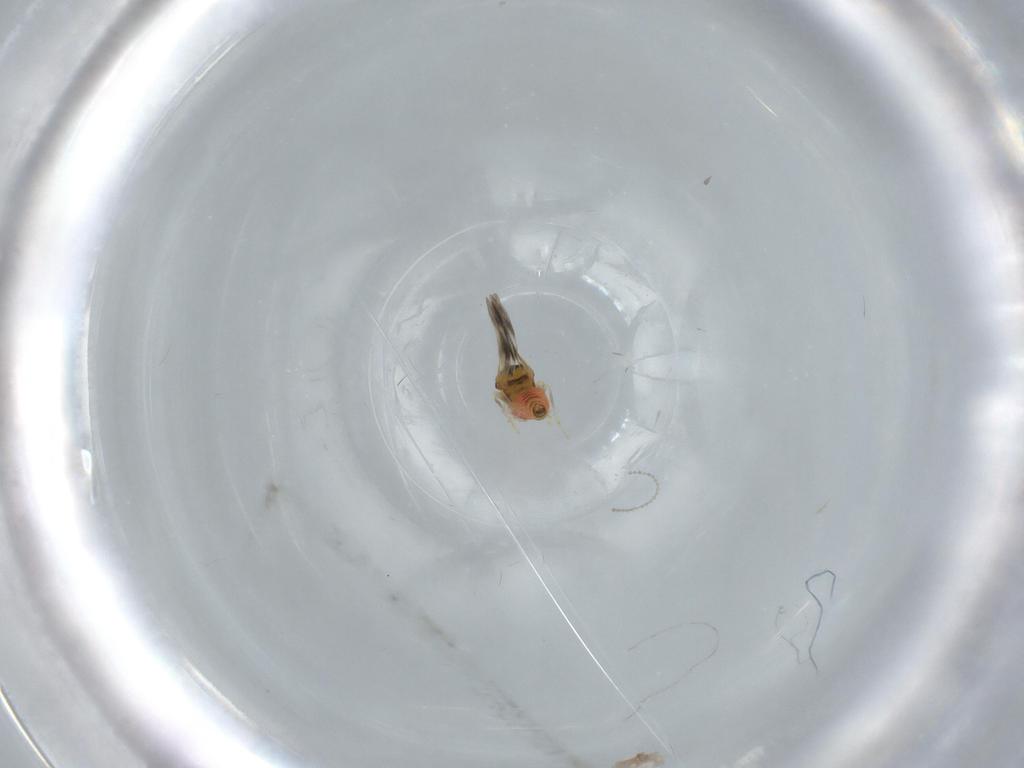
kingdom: Animalia
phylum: Arthropoda
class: Insecta
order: Diptera
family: Cecidomyiidae
